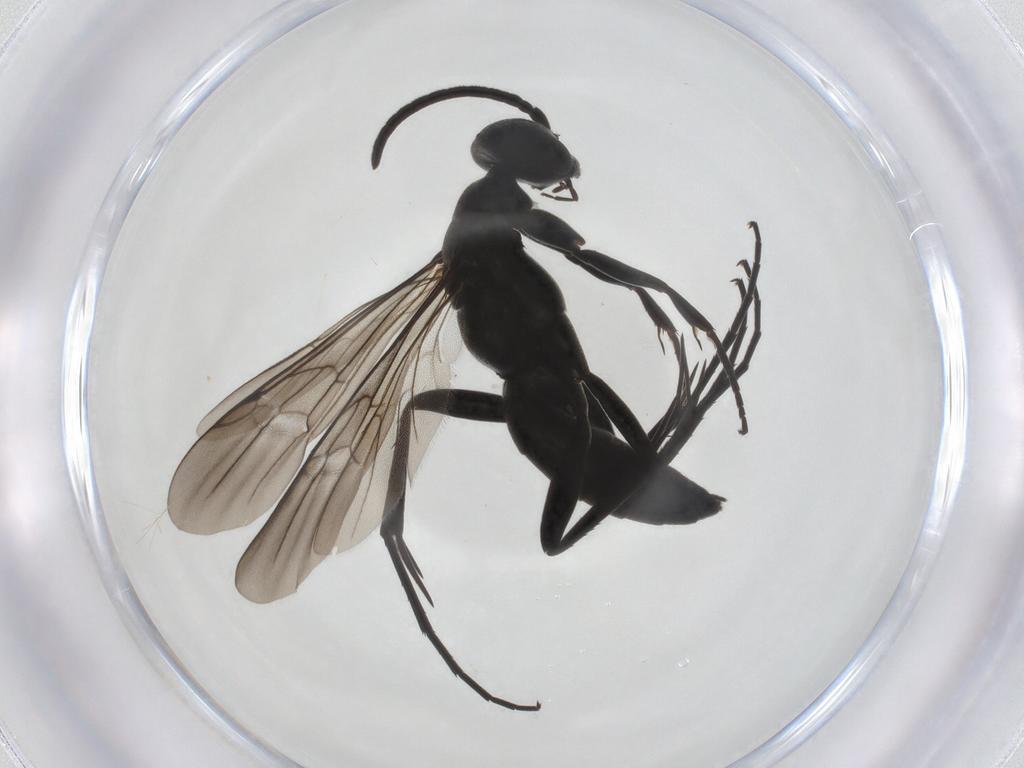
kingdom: Animalia
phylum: Arthropoda
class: Insecta
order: Hymenoptera
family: Pompilidae
